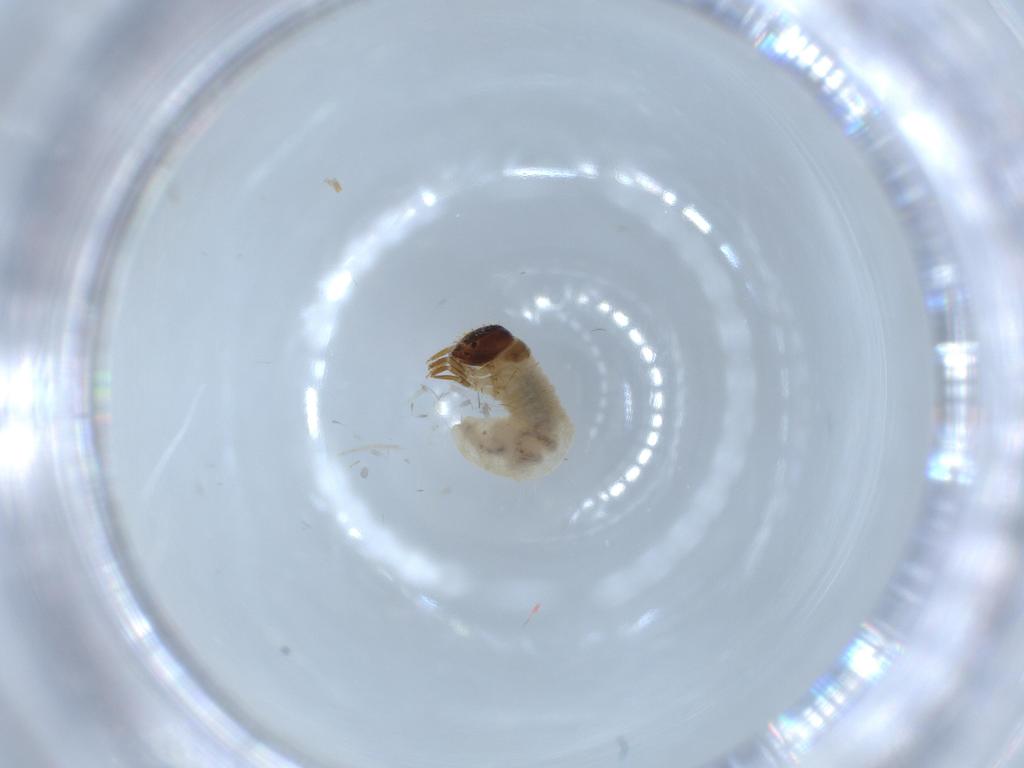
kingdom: Animalia
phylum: Arthropoda
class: Insecta
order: Coleoptera
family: Chrysomelidae
